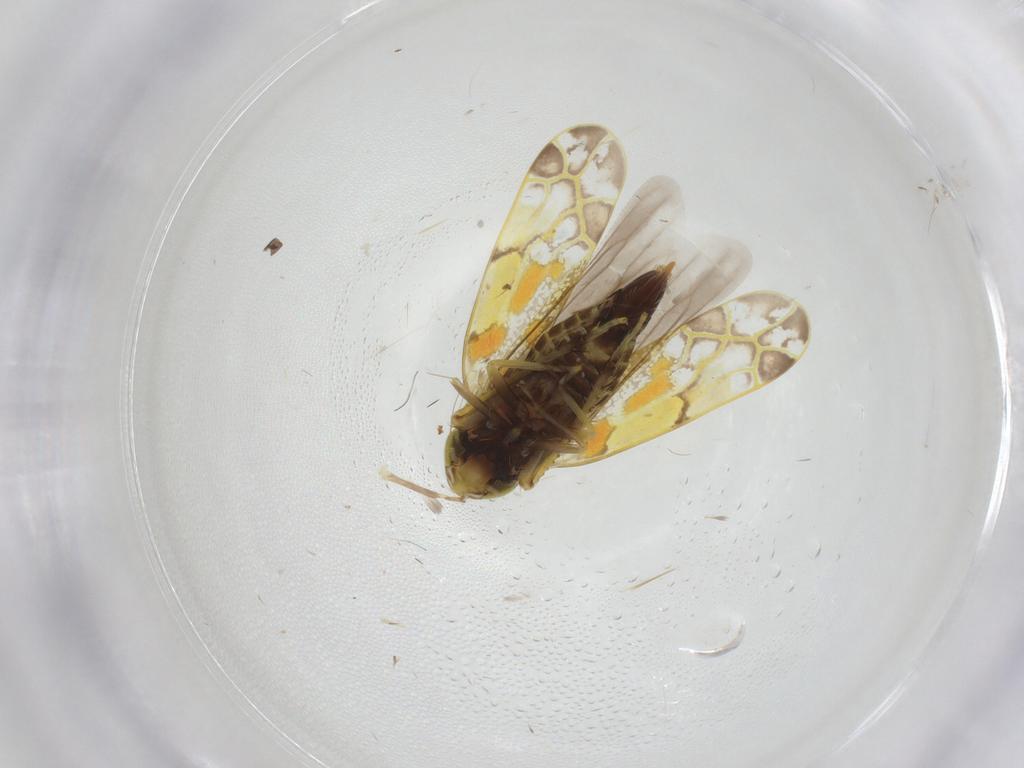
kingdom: Animalia
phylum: Arthropoda
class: Insecta
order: Hemiptera
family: Cicadellidae
